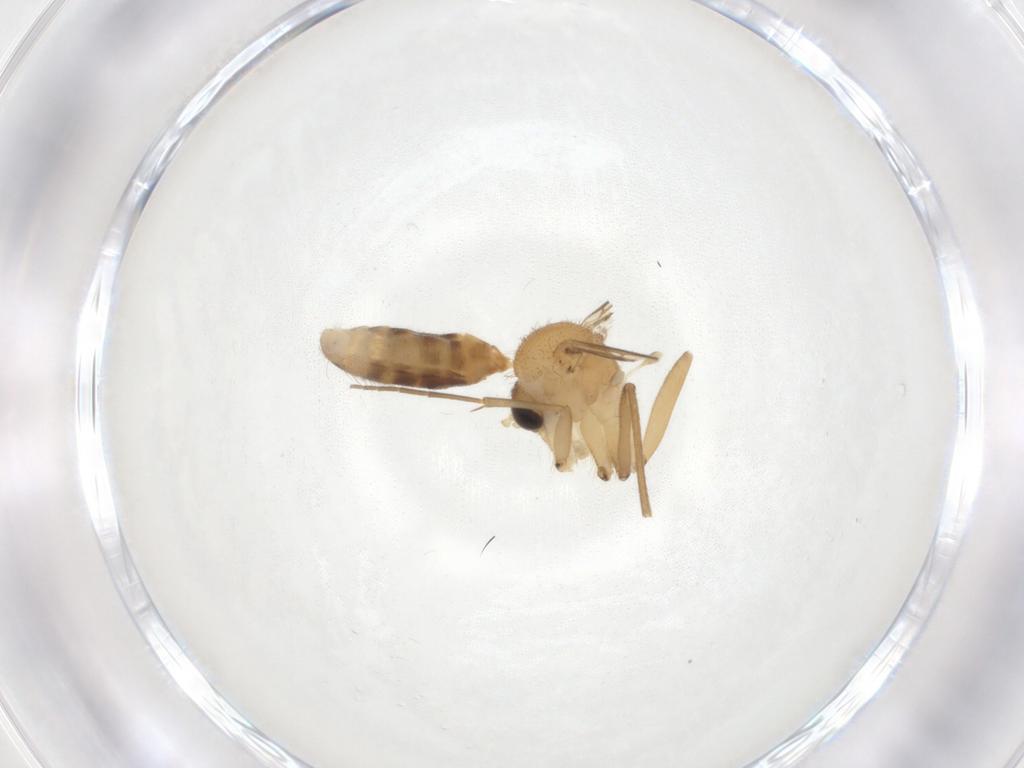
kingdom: Animalia
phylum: Arthropoda
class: Insecta
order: Diptera
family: Mycetophilidae
